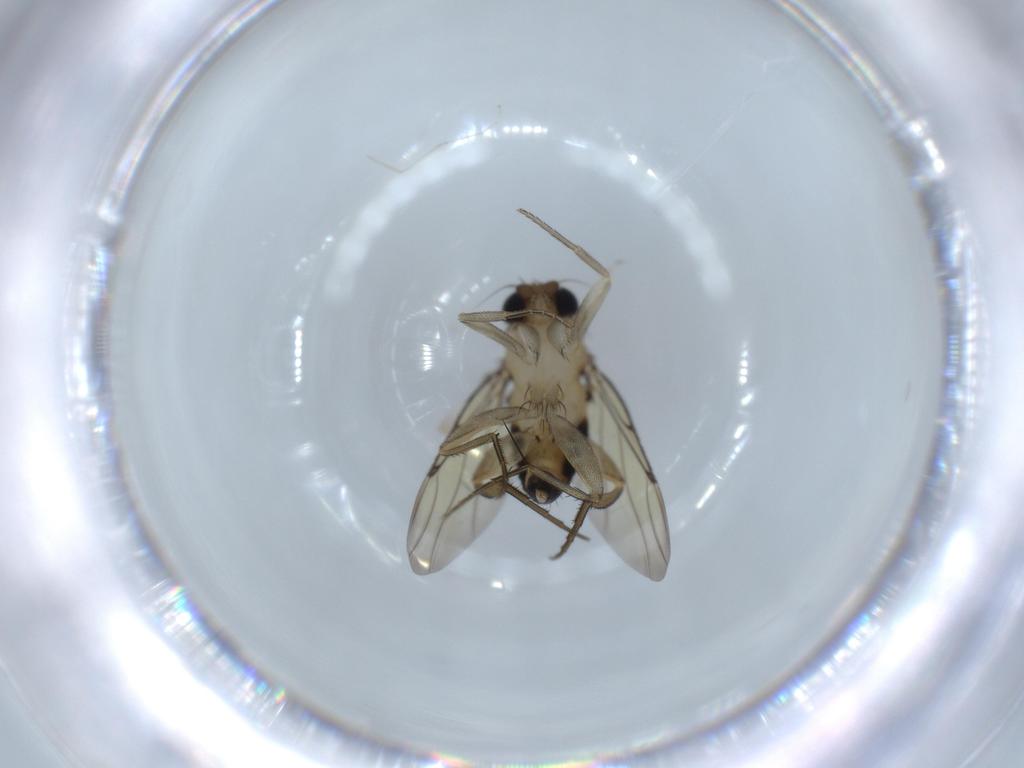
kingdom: Animalia
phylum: Arthropoda
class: Insecta
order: Diptera
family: Phoridae
